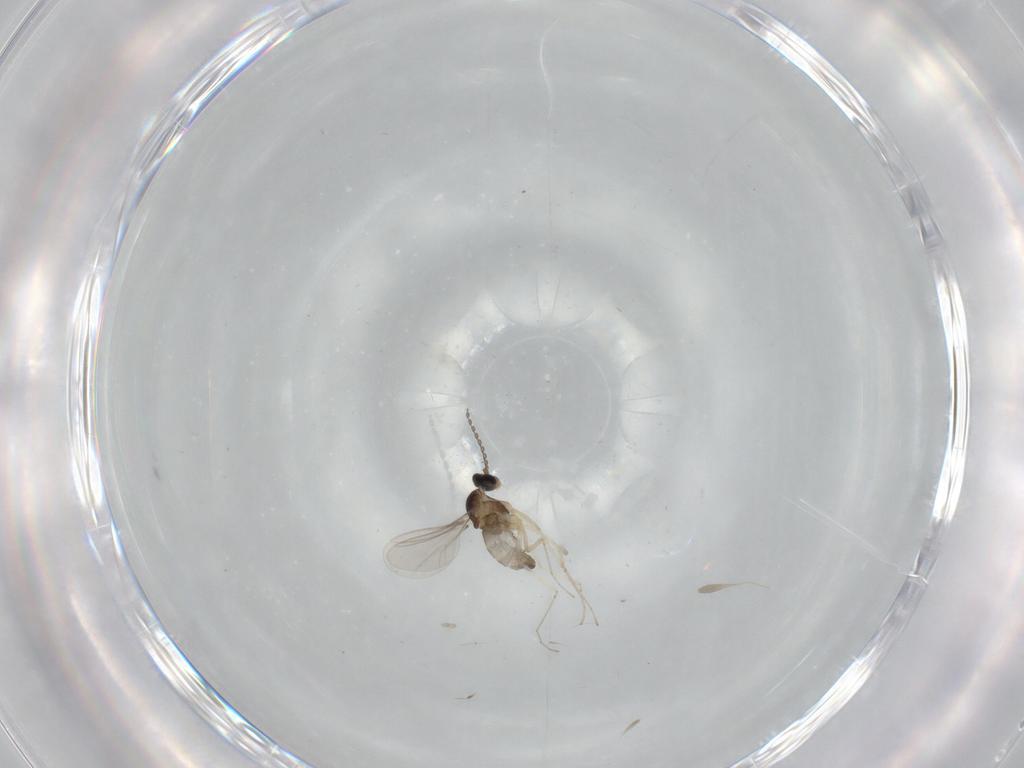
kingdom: Animalia
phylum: Arthropoda
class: Insecta
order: Diptera
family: Cecidomyiidae
